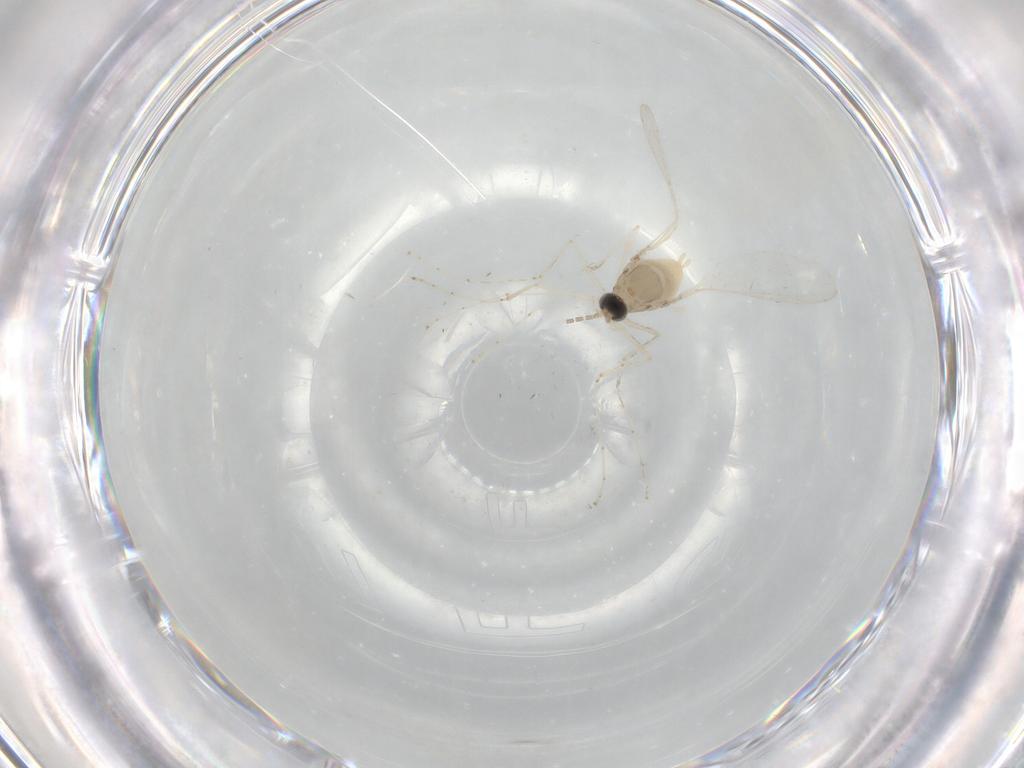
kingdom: Animalia
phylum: Arthropoda
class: Insecta
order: Diptera
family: Cecidomyiidae
